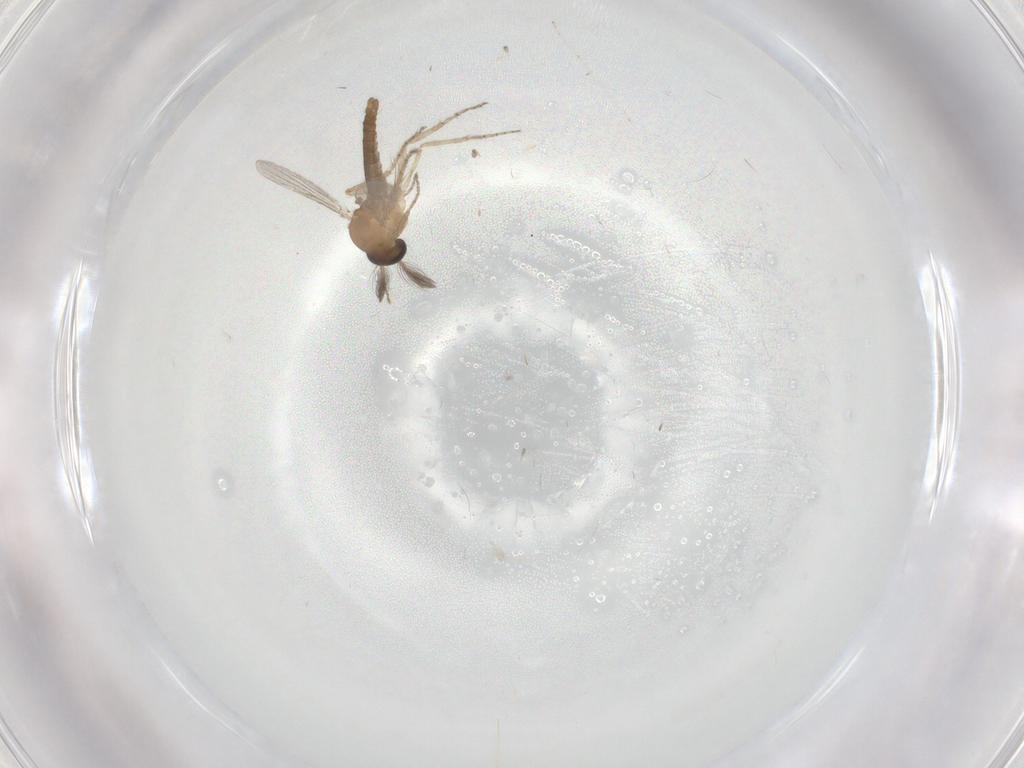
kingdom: Animalia
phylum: Arthropoda
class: Insecta
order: Diptera
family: Ceratopogonidae
